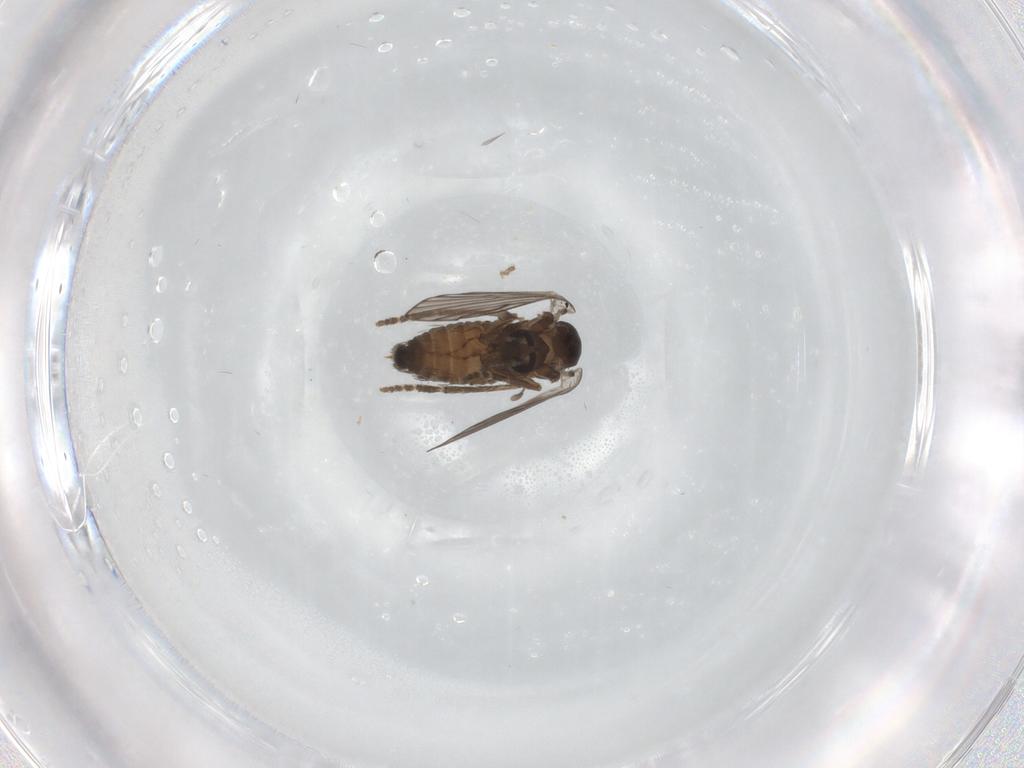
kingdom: Animalia
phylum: Arthropoda
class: Insecta
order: Diptera
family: Psychodidae
